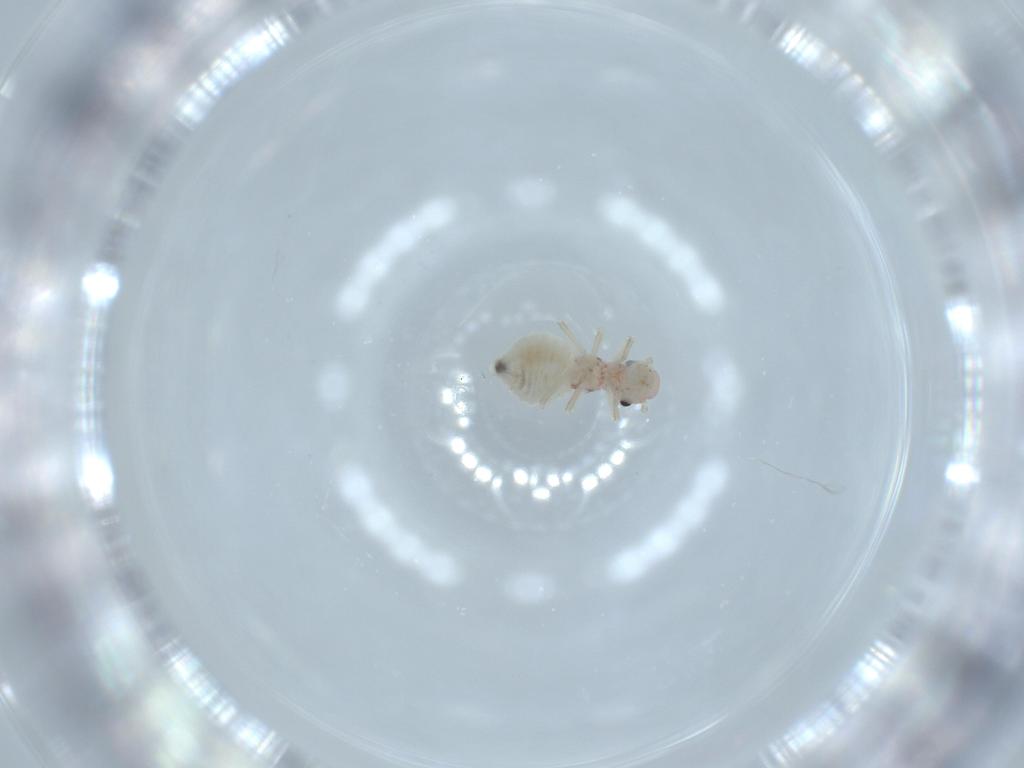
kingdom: Animalia
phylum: Arthropoda
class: Insecta
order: Psocodea
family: Amphipsocidae
